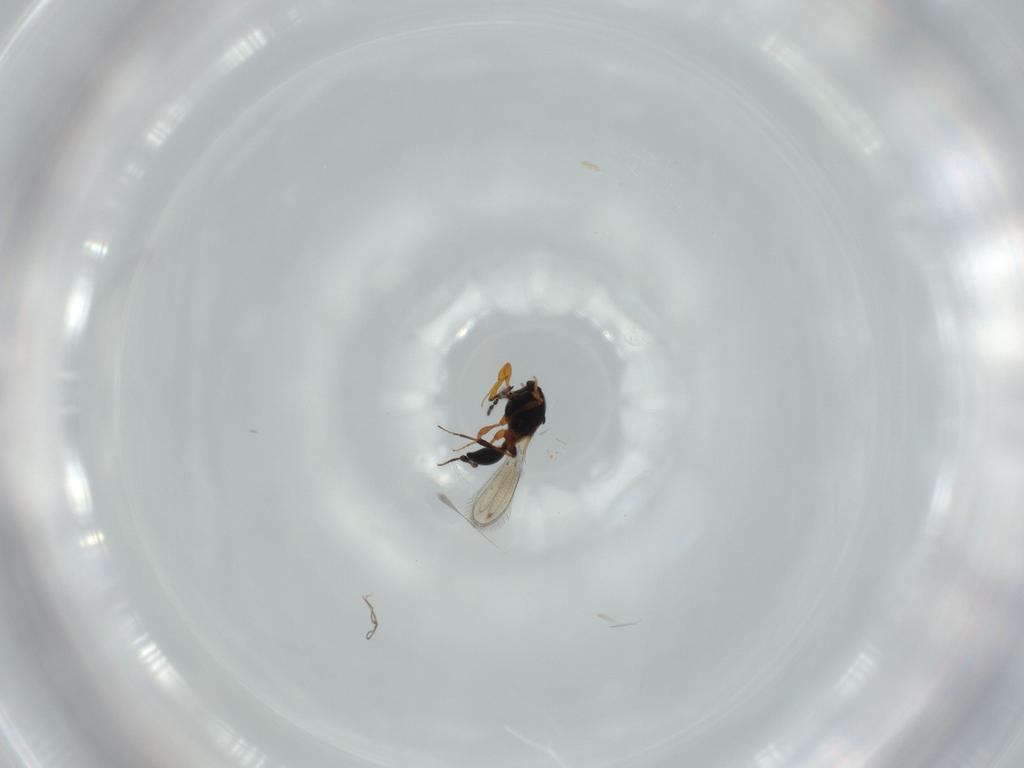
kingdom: Animalia
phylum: Arthropoda
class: Insecta
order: Hymenoptera
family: Platygastridae
